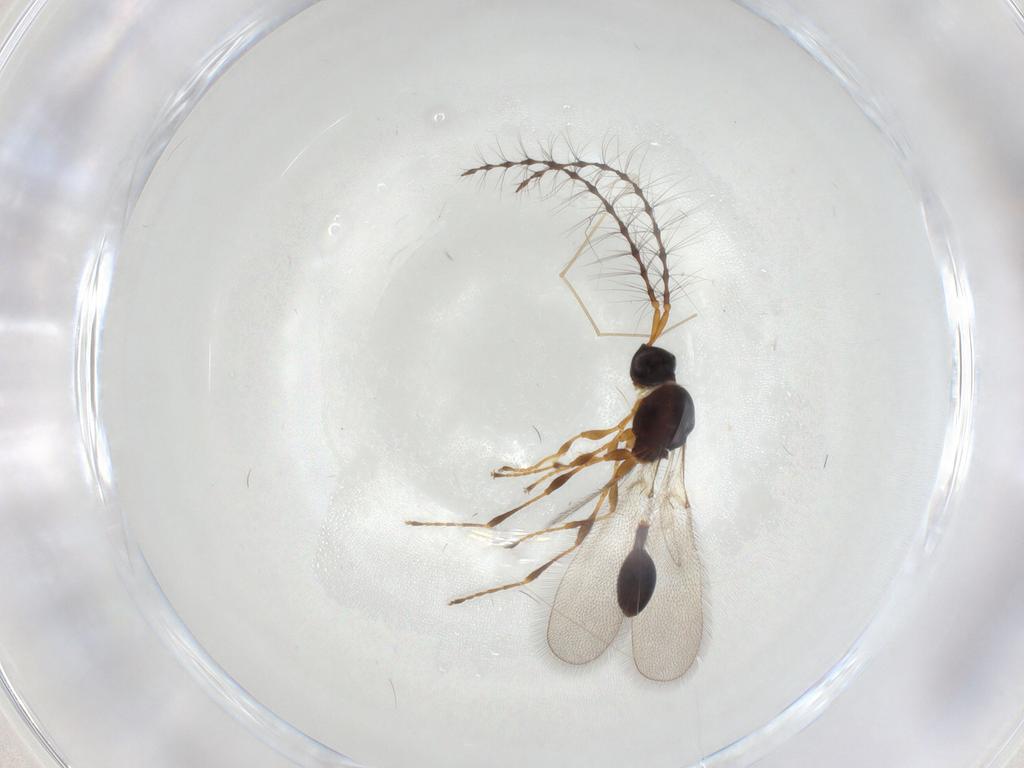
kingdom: Animalia
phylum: Arthropoda
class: Insecta
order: Hymenoptera
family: Diapriidae
